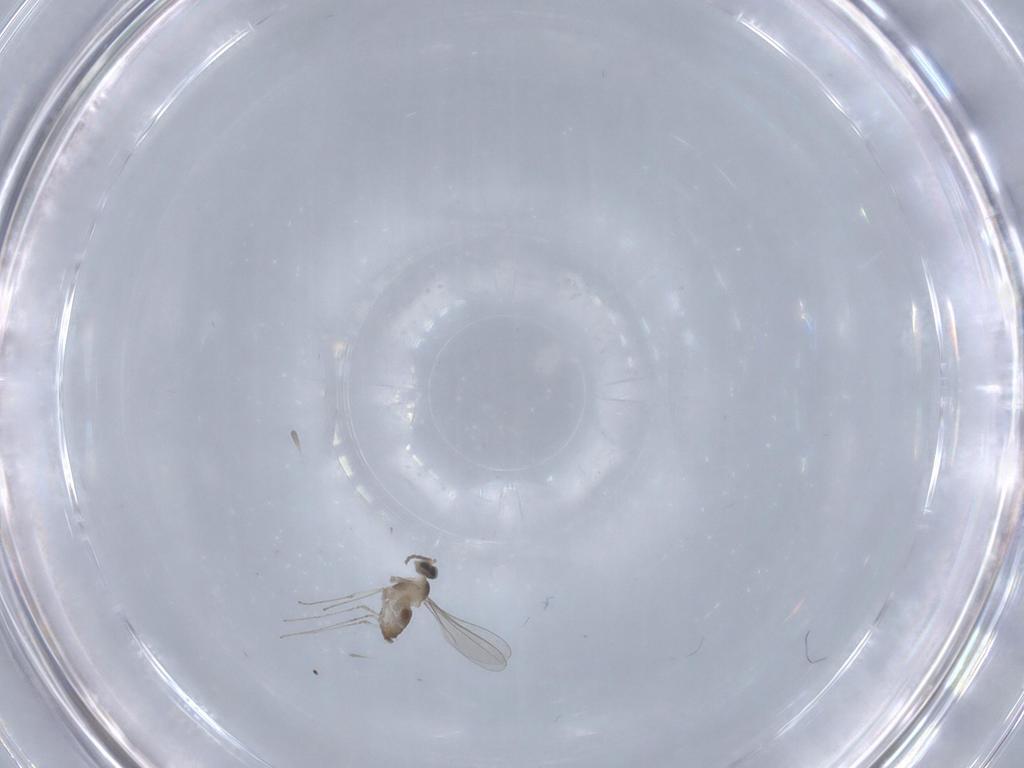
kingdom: Animalia
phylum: Arthropoda
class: Insecta
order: Diptera
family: Cecidomyiidae
